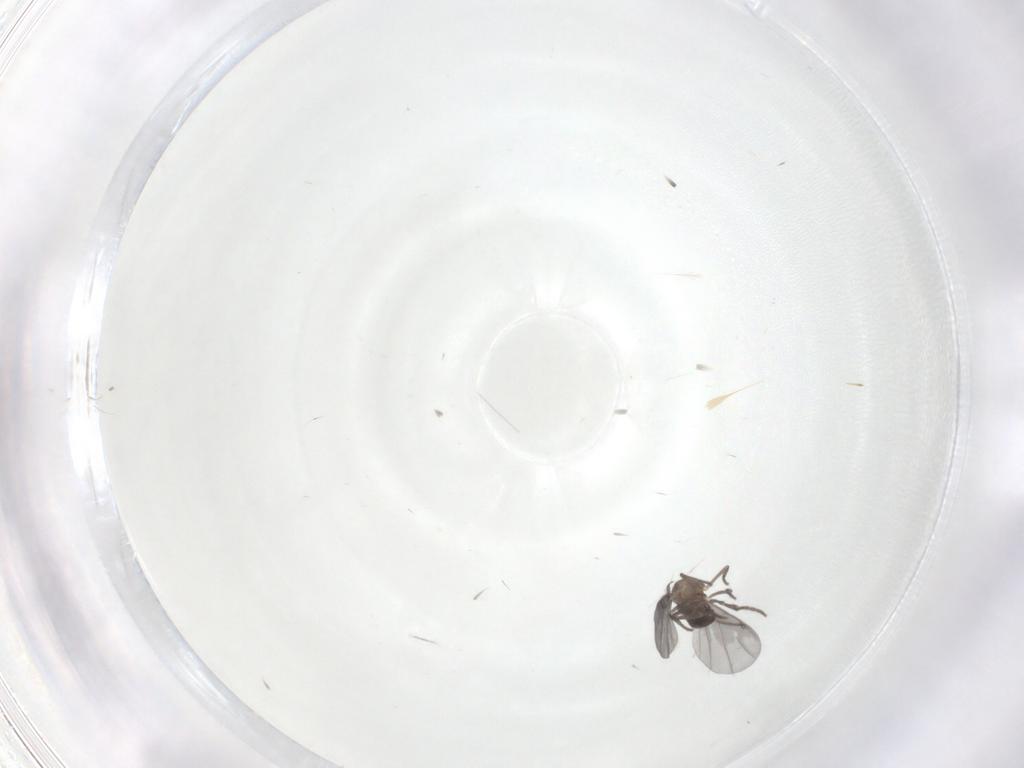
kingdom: Animalia
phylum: Arthropoda
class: Insecta
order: Diptera
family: Phoridae
